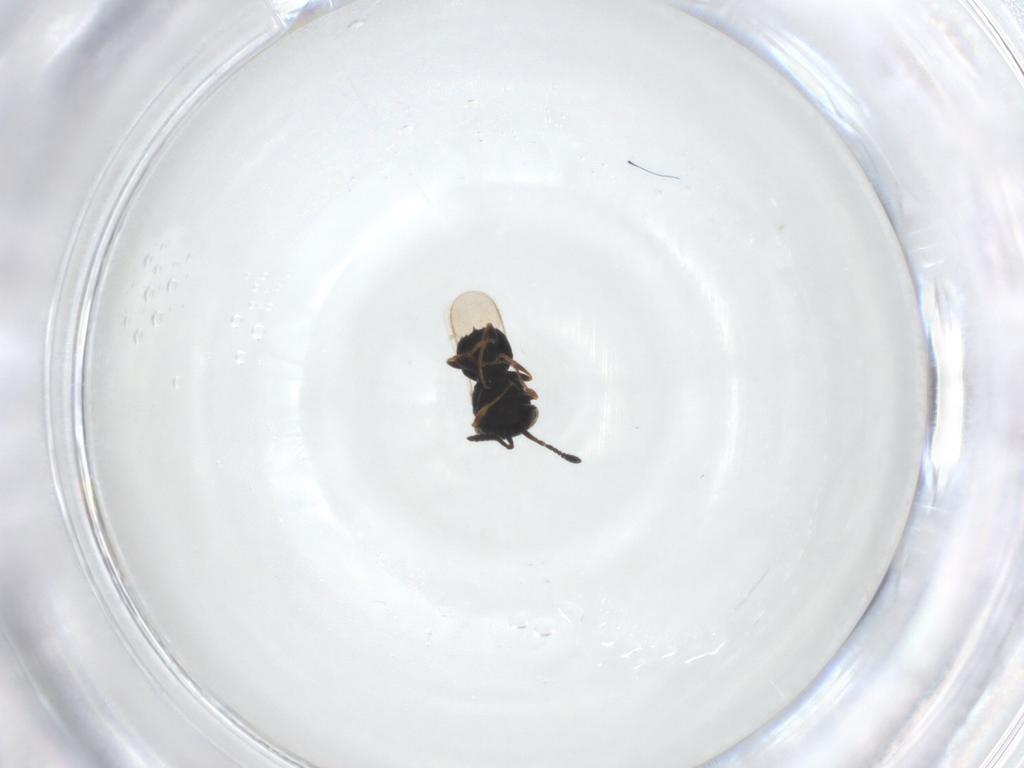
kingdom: Animalia
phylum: Arthropoda
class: Insecta
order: Hymenoptera
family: Scelionidae
